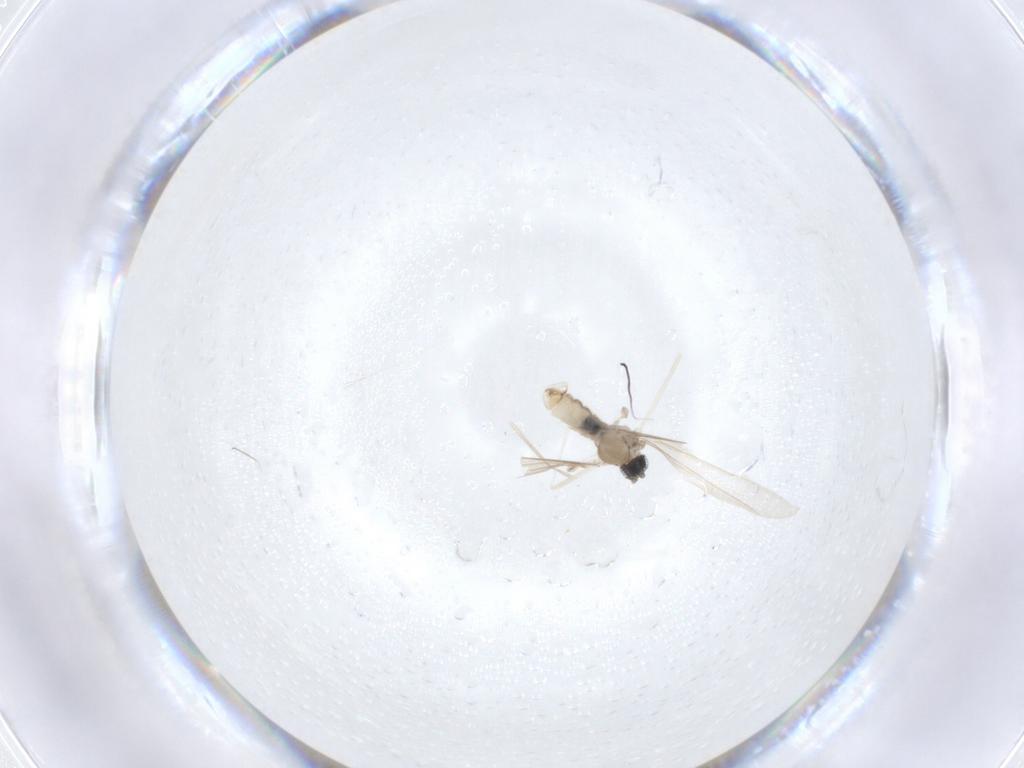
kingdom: Animalia
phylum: Arthropoda
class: Insecta
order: Diptera
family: Cecidomyiidae
